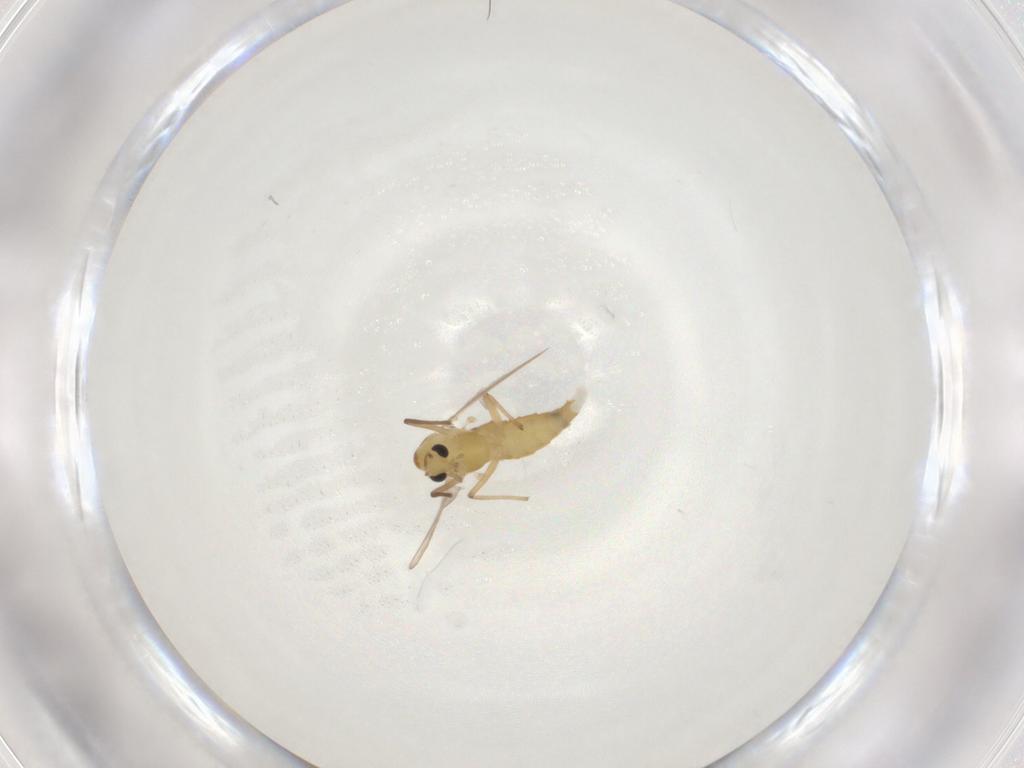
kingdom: Animalia
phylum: Arthropoda
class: Insecta
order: Diptera
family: Chironomidae
